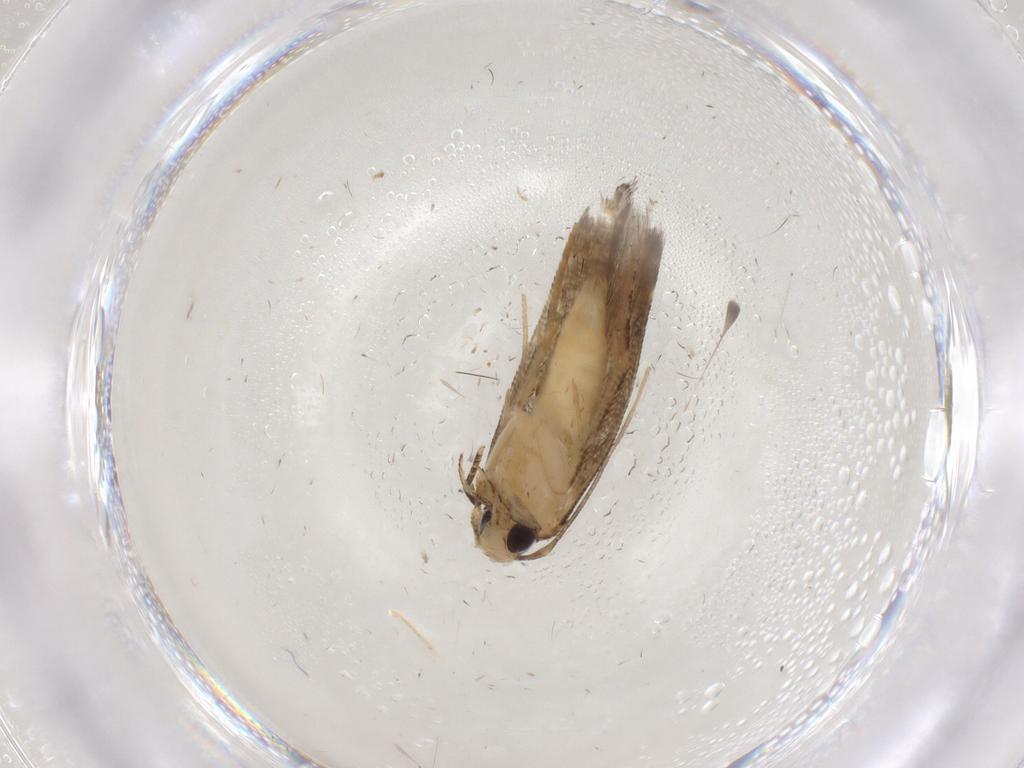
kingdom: Animalia
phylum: Arthropoda
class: Insecta
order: Lepidoptera
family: Cosmopterigidae
